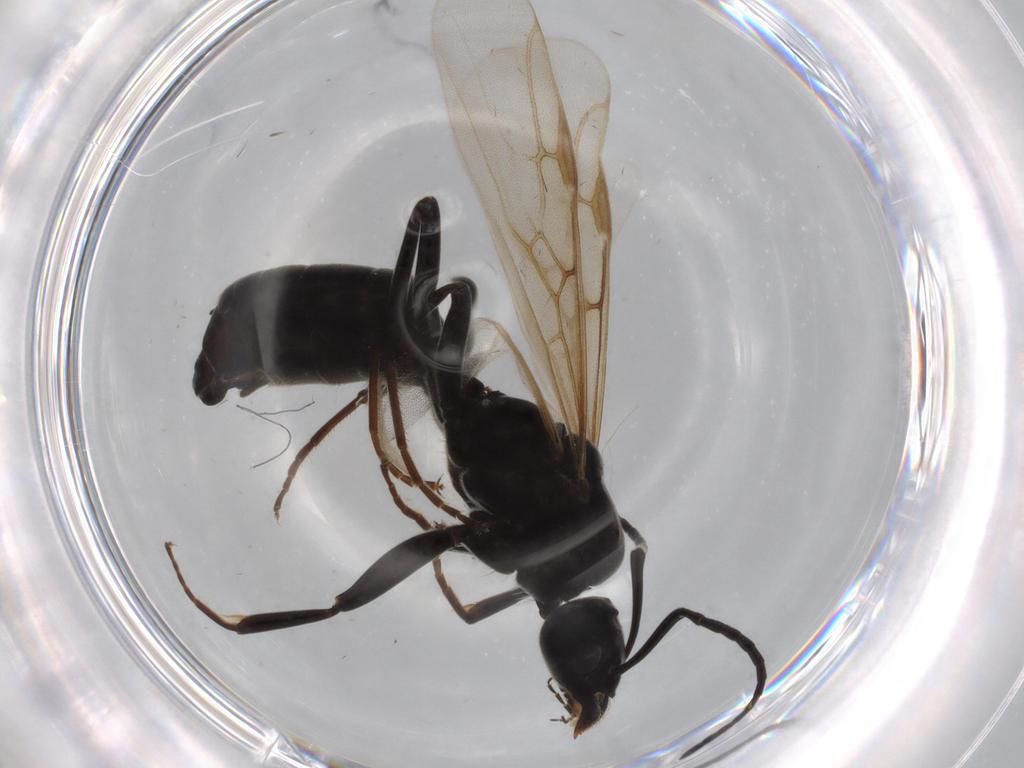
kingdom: Animalia
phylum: Arthropoda
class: Insecta
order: Hymenoptera
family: Formicidae
